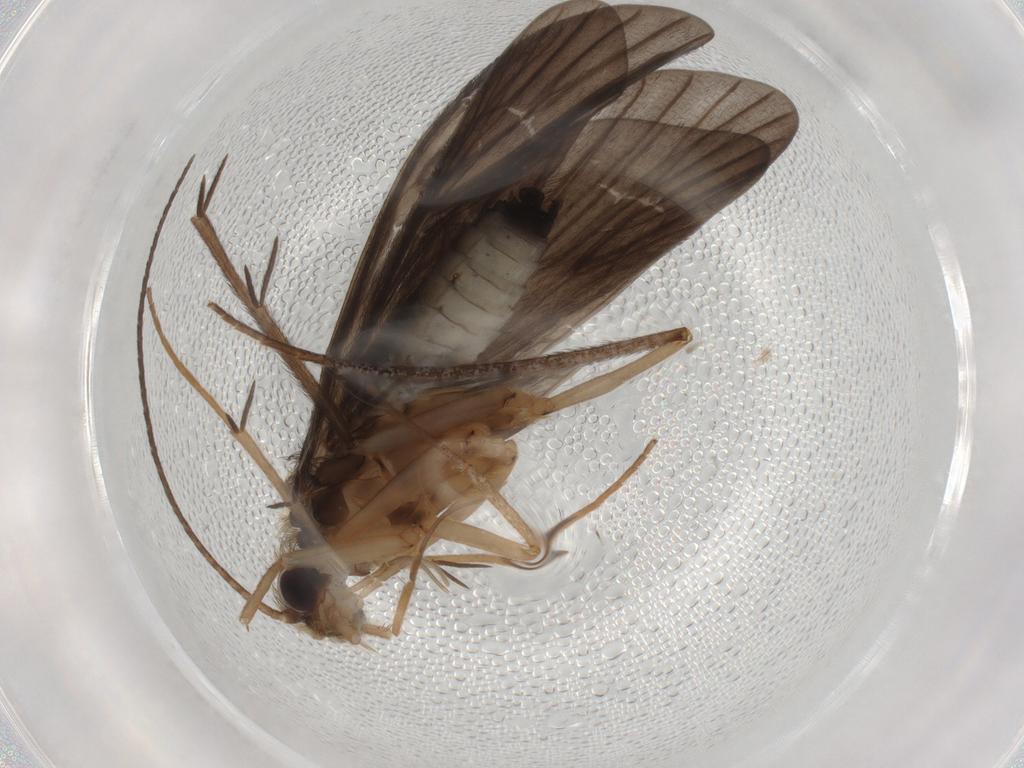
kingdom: Animalia
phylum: Arthropoda
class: Insecta
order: Trichoptera
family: Philopotamidae
